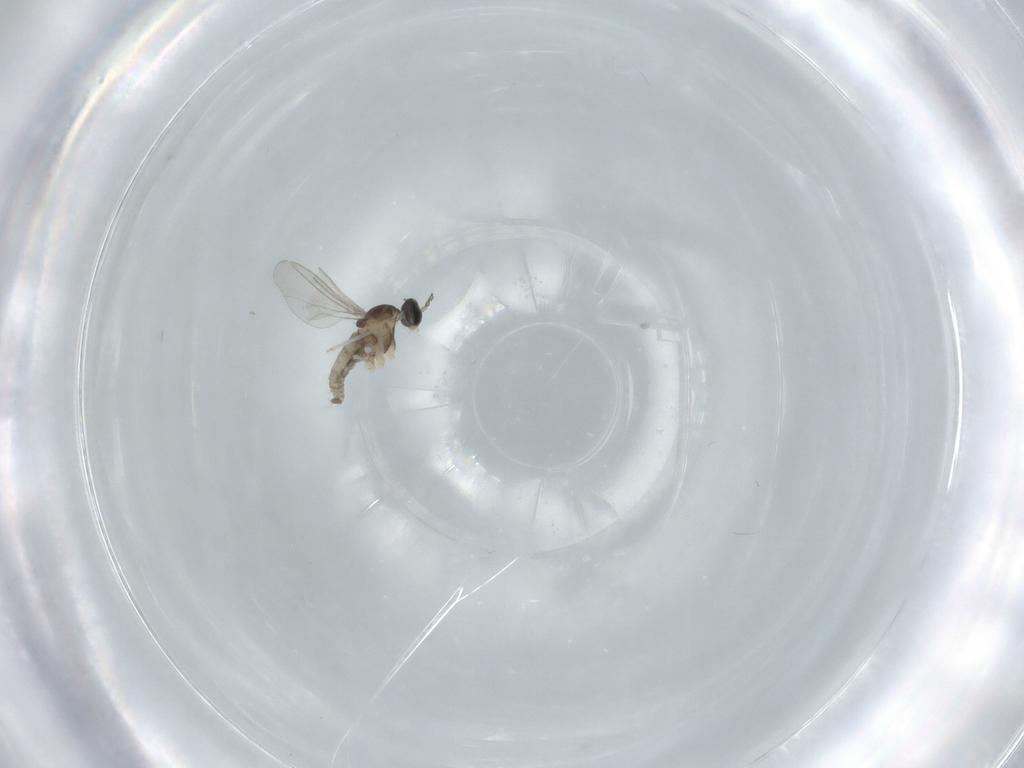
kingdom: Animalia
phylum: Arthropoda
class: Insecta
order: Diptera
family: Cecidomyiidae
